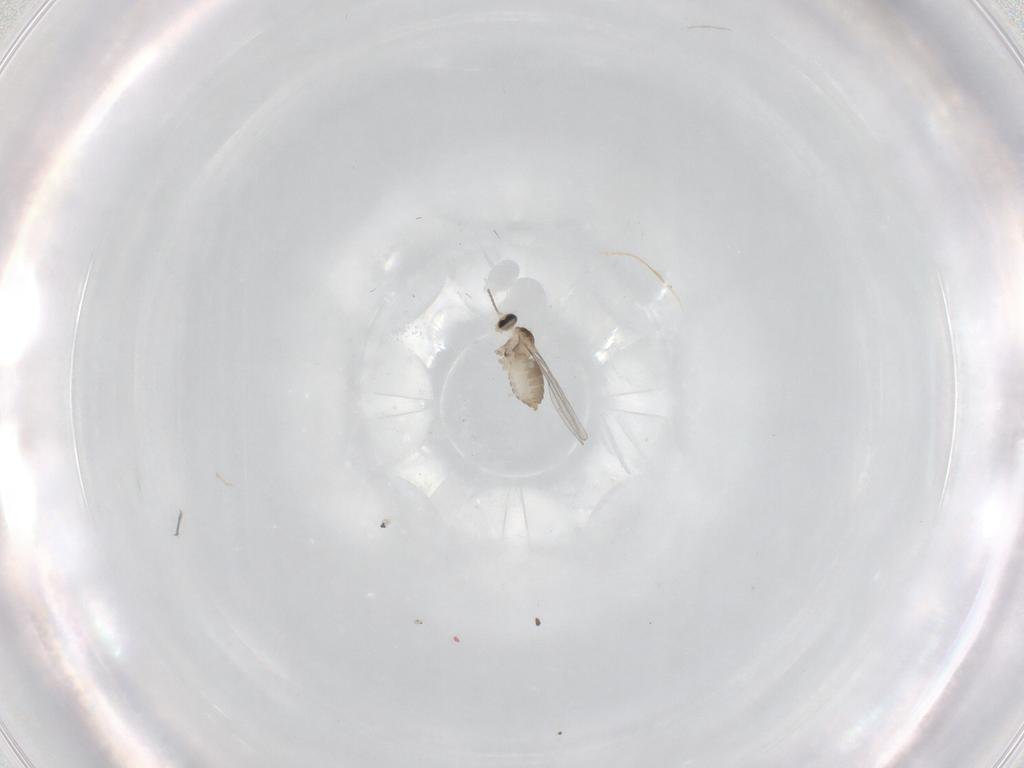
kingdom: Animalia
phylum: Arthropoda
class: Insecta
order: Diptera
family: Cecidomyiidae
